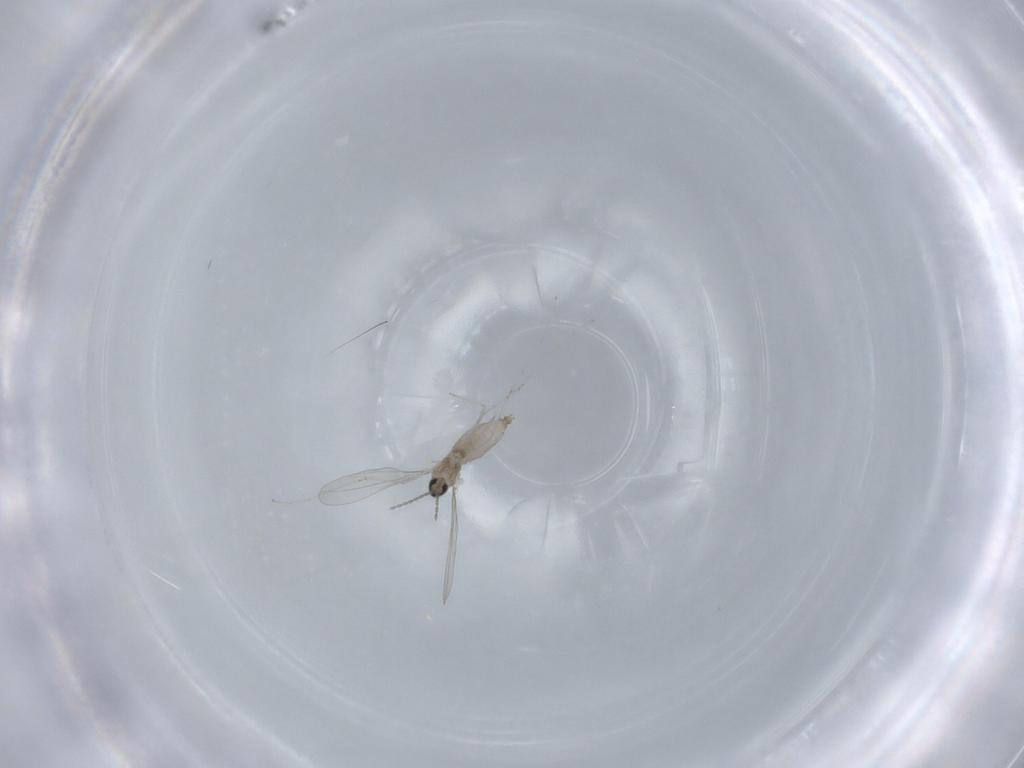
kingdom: Animalia
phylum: Arthropoda
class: Insecta
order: Diptera
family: Cecidomyiidae
